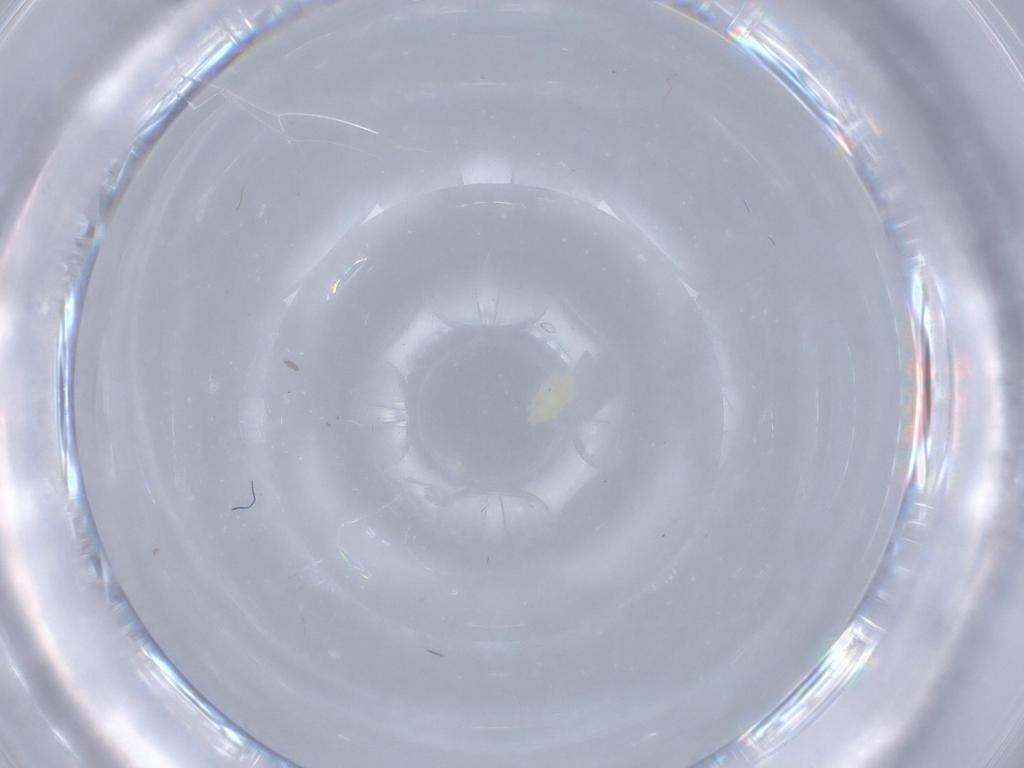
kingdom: Animalia
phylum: Arthropoda
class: Arachnida
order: Trombidiformes
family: Eupodidae
